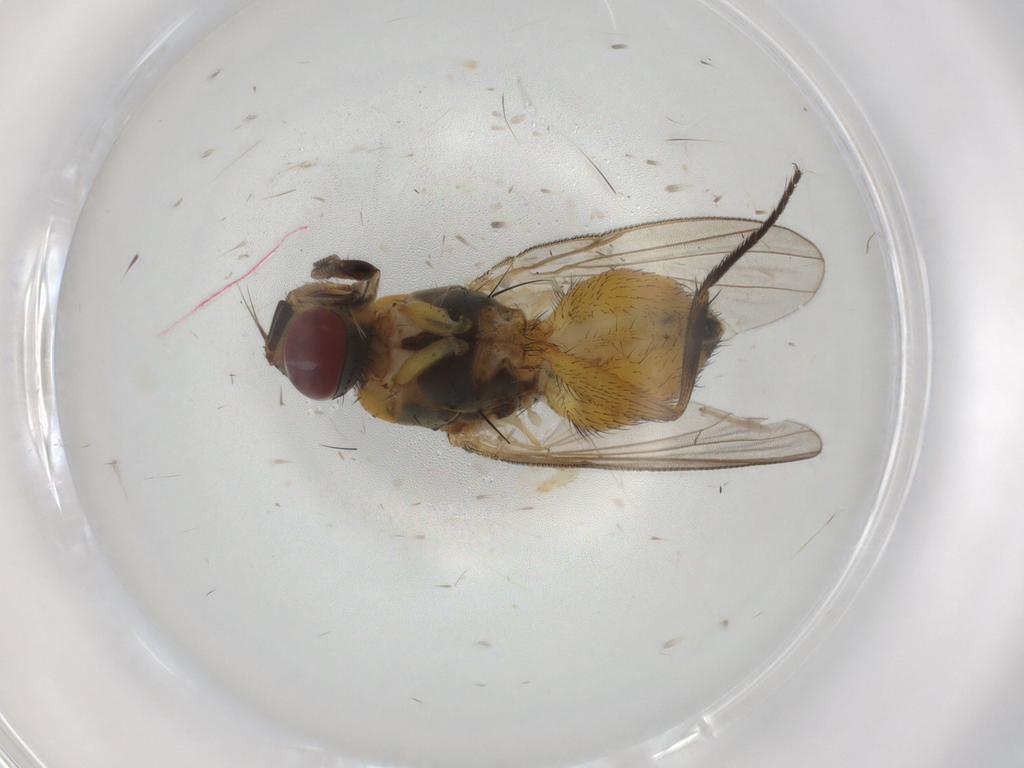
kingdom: Animalia
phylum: Arthropoda
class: Insecta
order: Diptera
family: Muscidae
